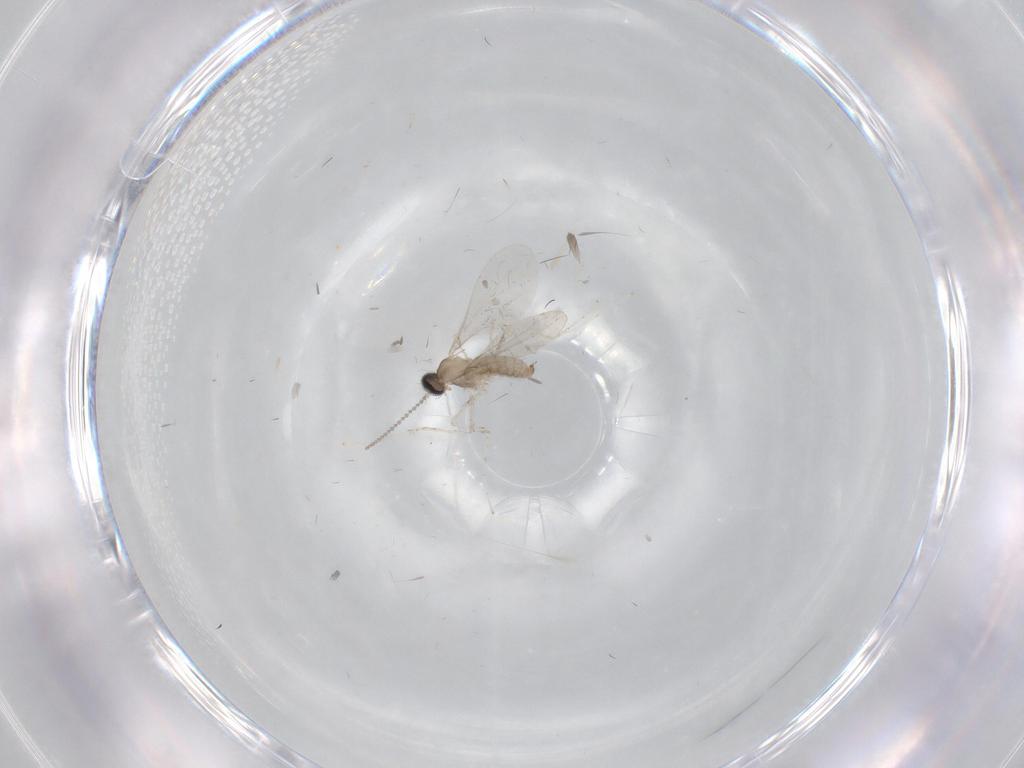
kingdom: Animalia
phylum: Arthropoda
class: Insecta
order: Diptera
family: Cecidomyiidae
